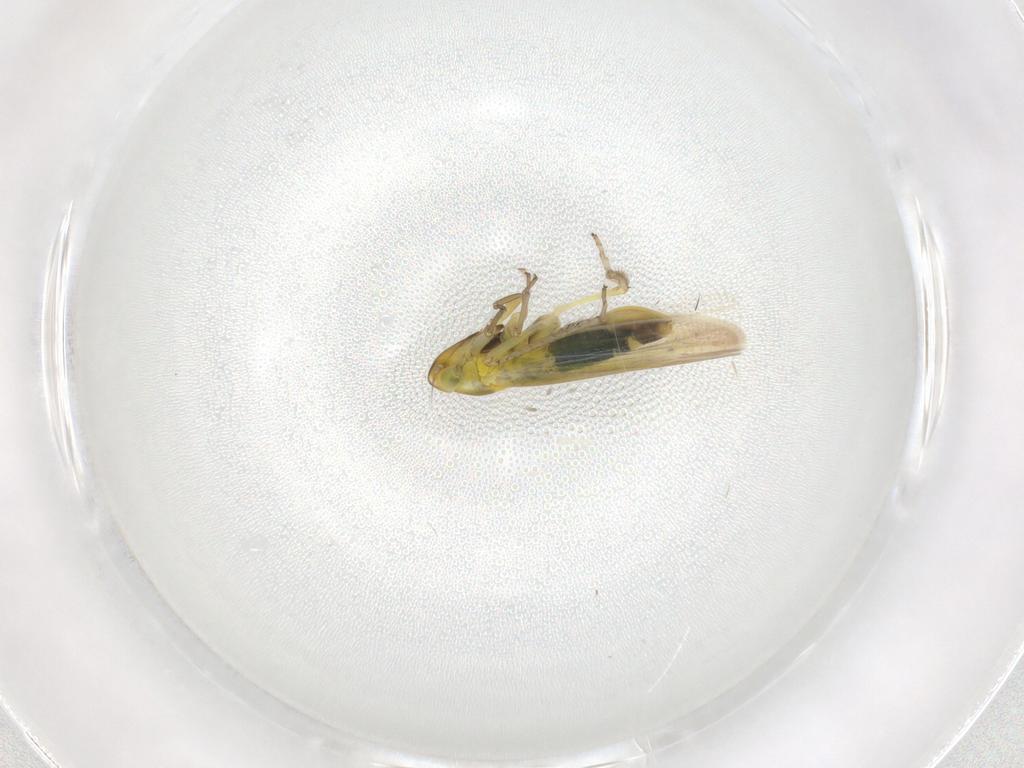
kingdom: Animalia
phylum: Arthropoda
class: Insecta
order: Hemiptera
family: Cicadellidae
